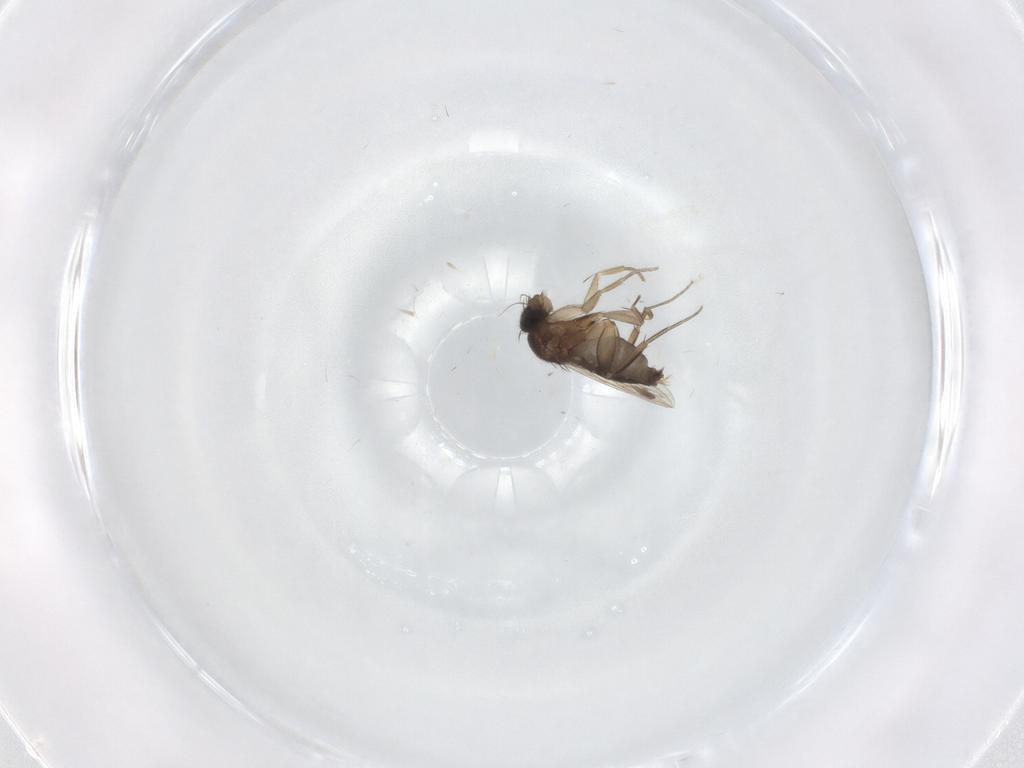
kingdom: Animalia
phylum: Arthropoda
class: Insecta
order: Diptera
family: Phoridae
